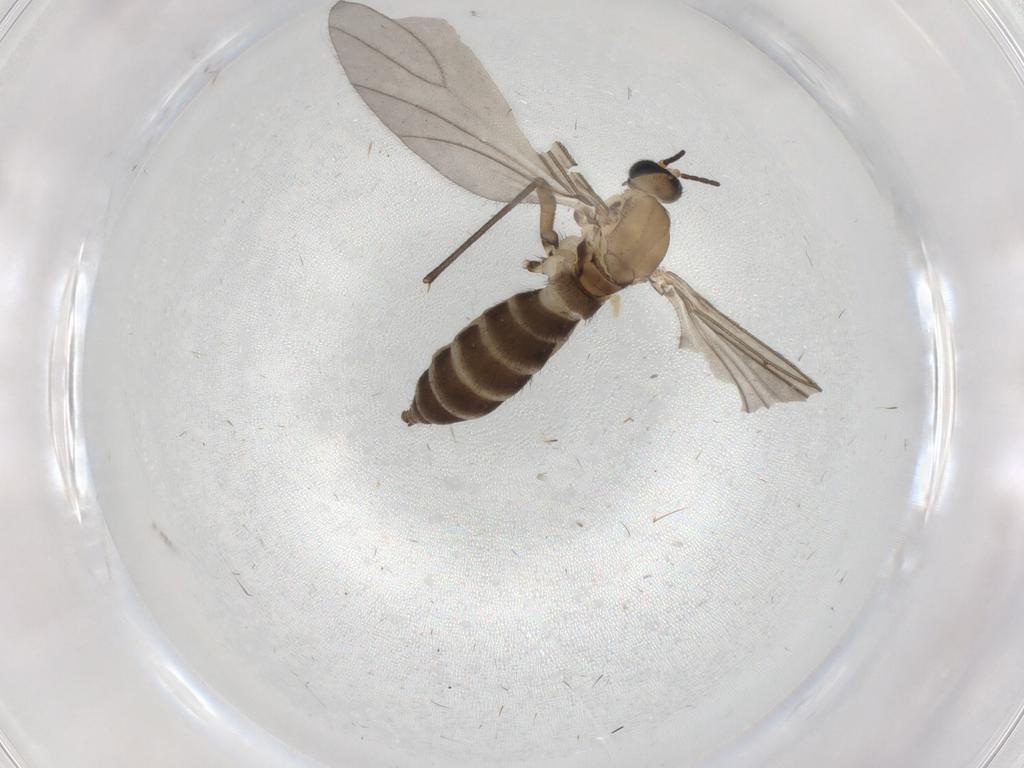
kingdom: Animalia
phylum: Arthropoda
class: Insecta
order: Diptera
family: Sciaridae
